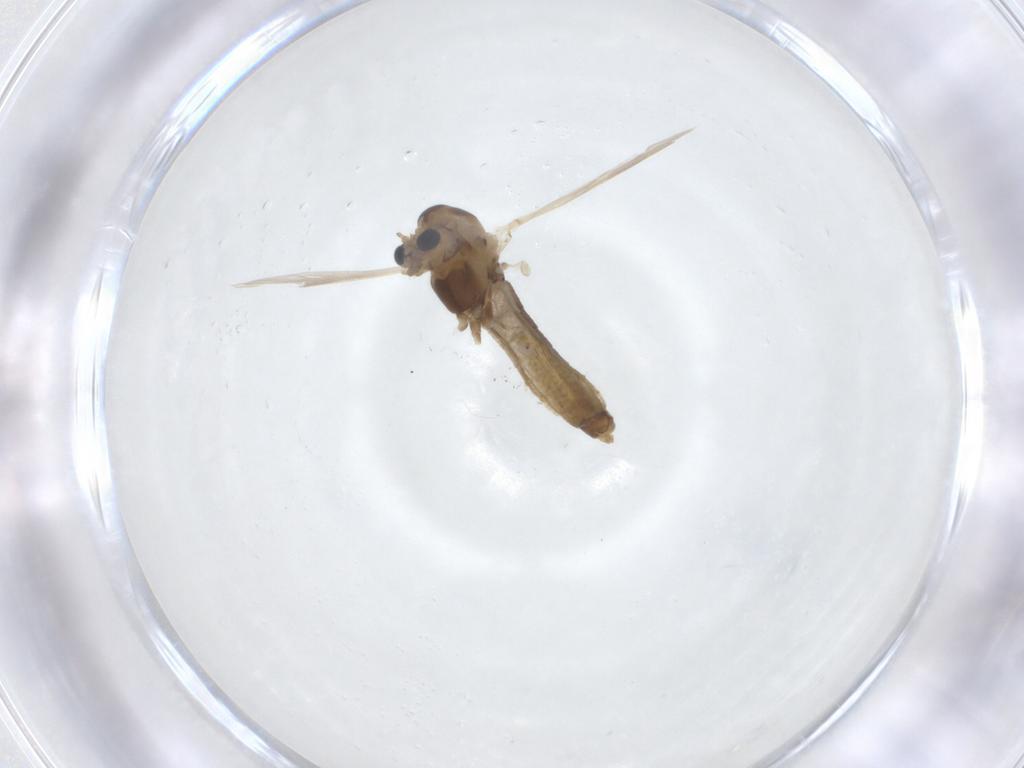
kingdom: Animalia
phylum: Arthropoda
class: Insecta
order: Diptera
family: Chironomidae
